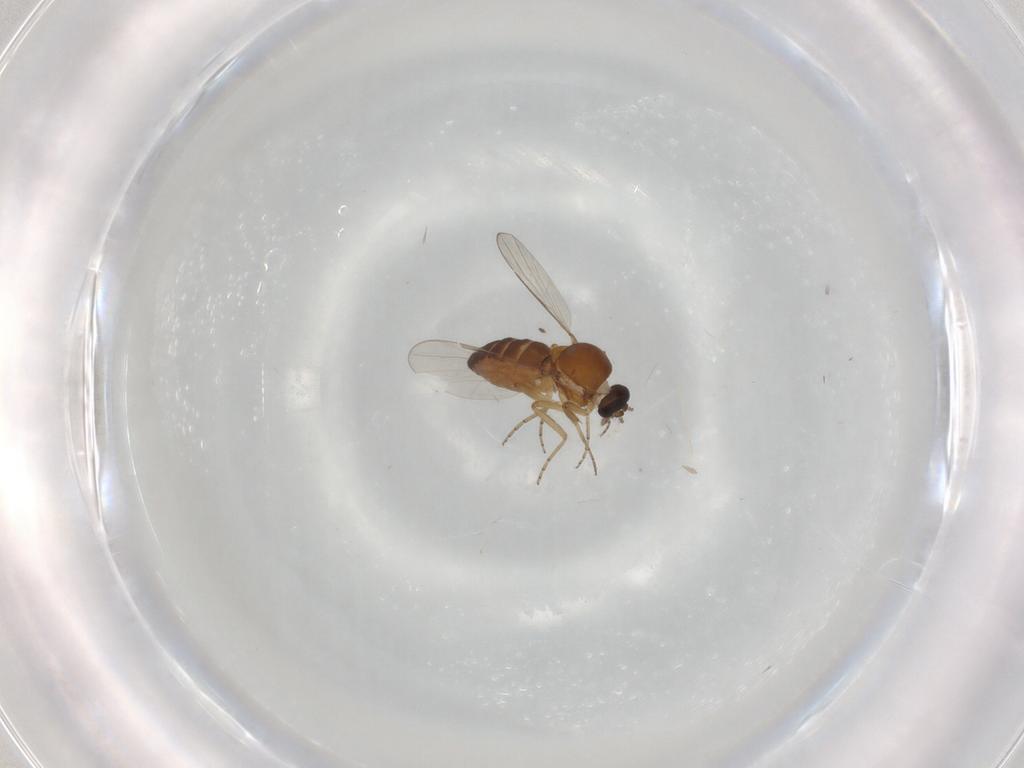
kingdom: Animalia
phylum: Arthropoda
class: Insecta
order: Diptera
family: Ceratopogonidae
